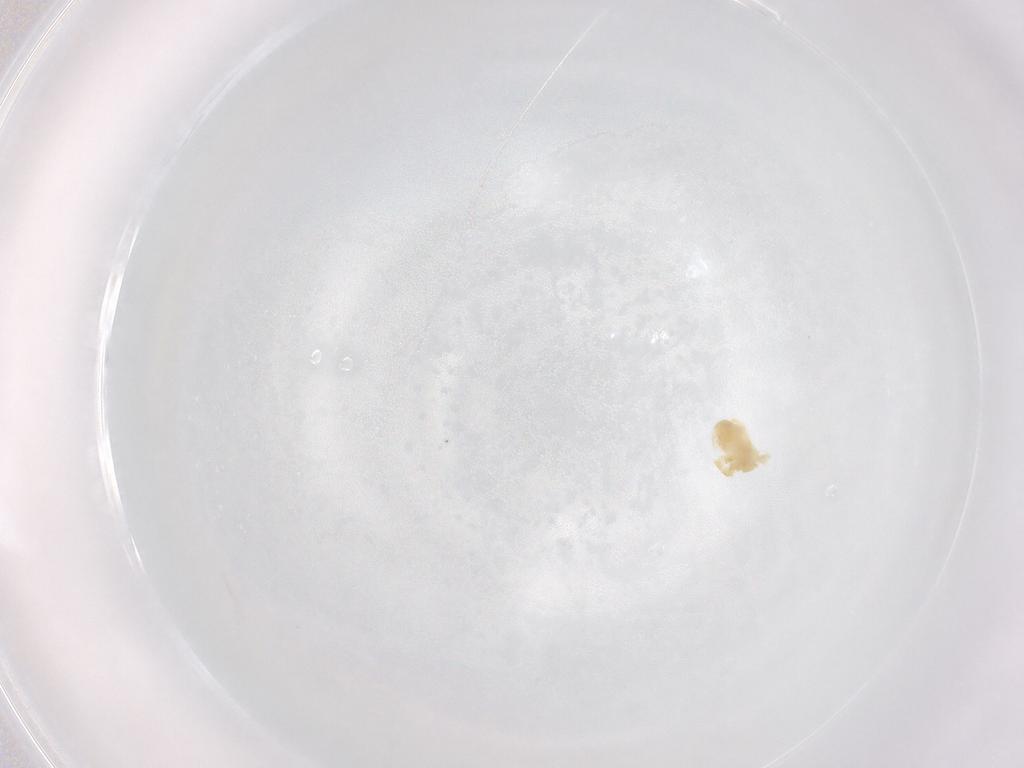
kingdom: Animalia
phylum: Arthropoda
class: Arachnida
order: Trombidiformes
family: Eupodidae
